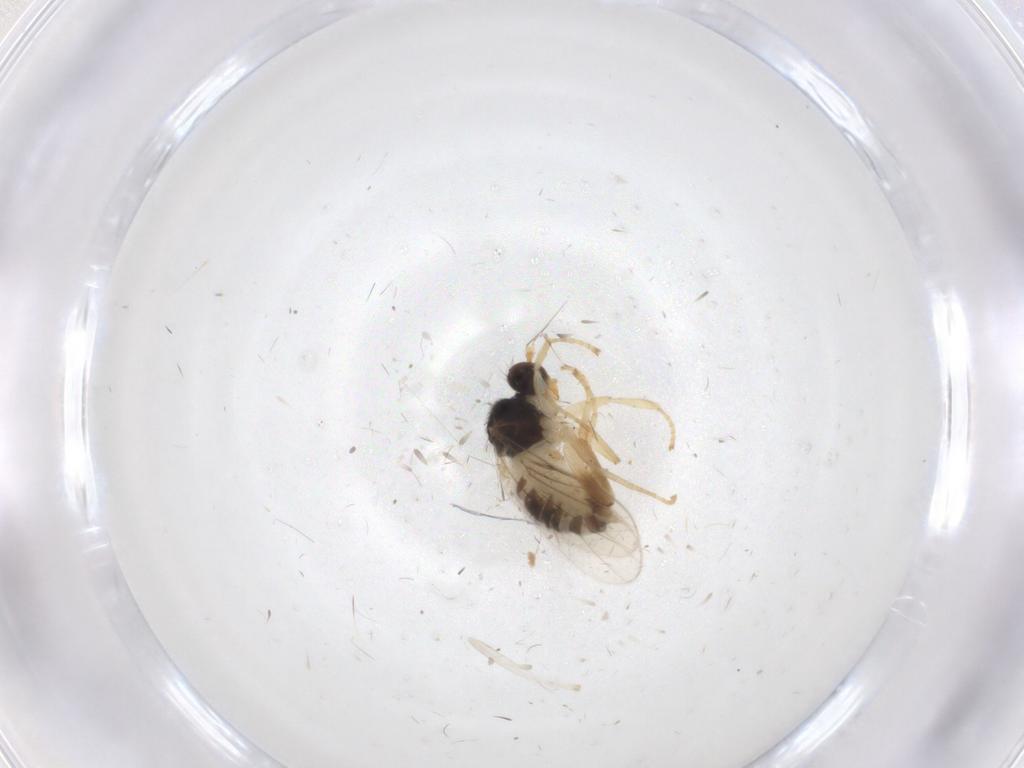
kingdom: Animalia
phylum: Arthropoda
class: Insecta
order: Diptera
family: Hybotidae
